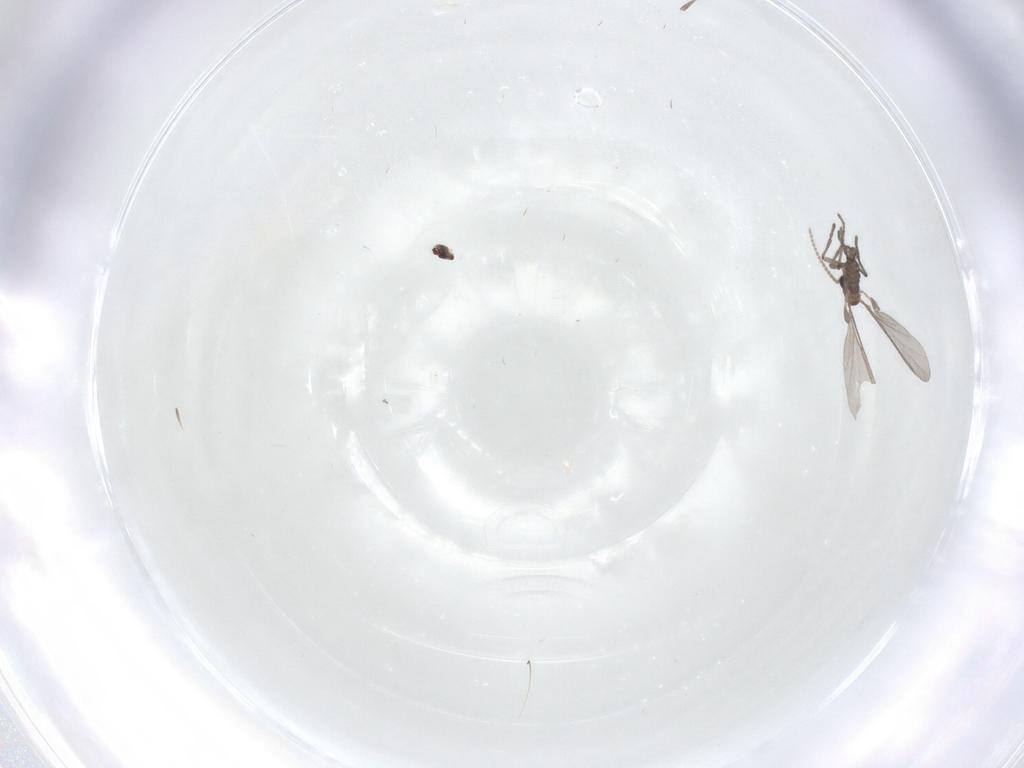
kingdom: Animalia
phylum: Arthropoda
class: Insecta
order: Diptera
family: Cecidomyiidae
